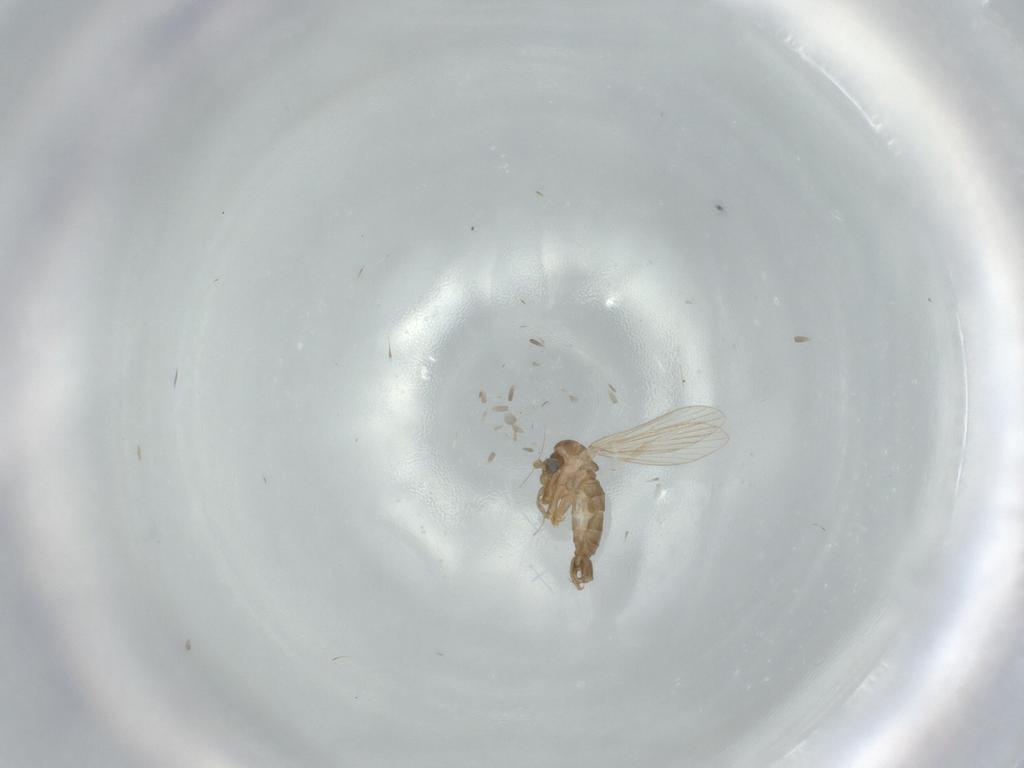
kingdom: Animalia
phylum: Arthropoda
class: Insecta
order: Diptera
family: Psychodidae
